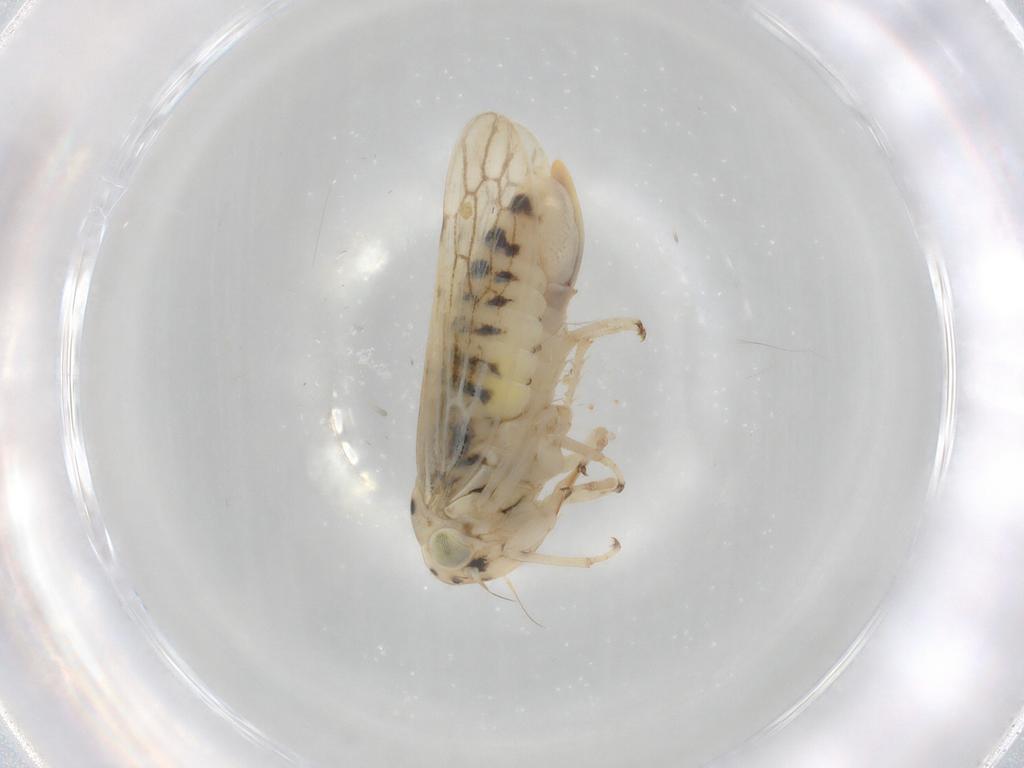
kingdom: Animalia
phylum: Arthropoda
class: Insecta
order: Hemiptera
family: Cicadellidae
